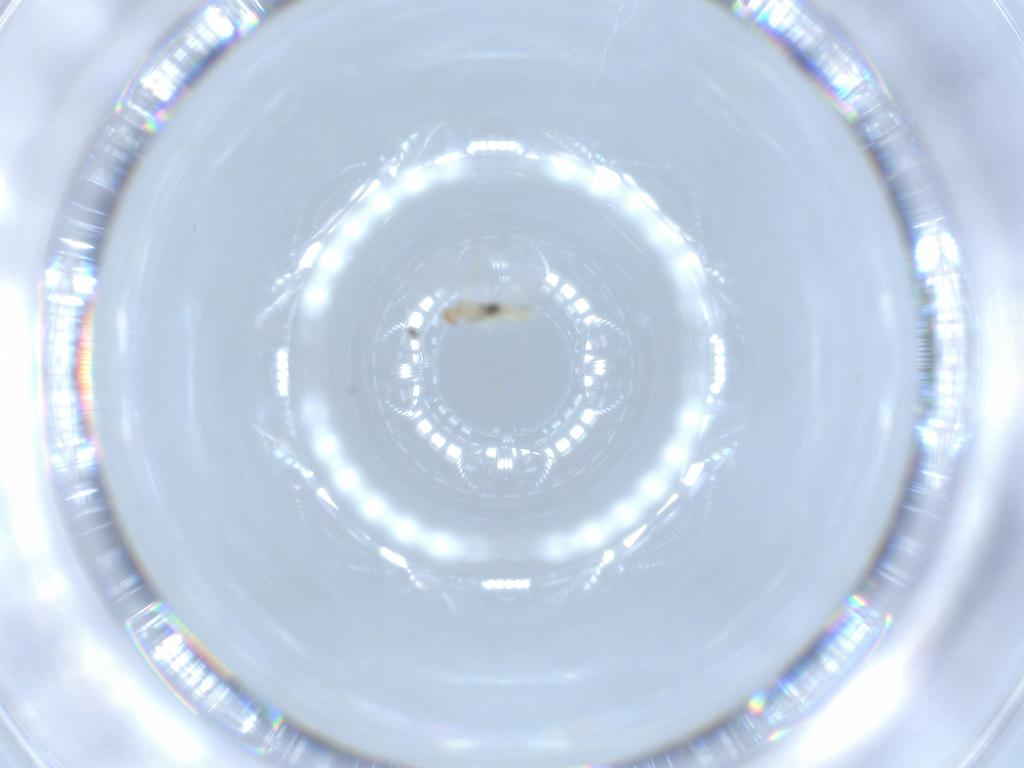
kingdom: Animalia
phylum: Arthropoda
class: Insecta
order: Diptera
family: Cecidomyiidae
